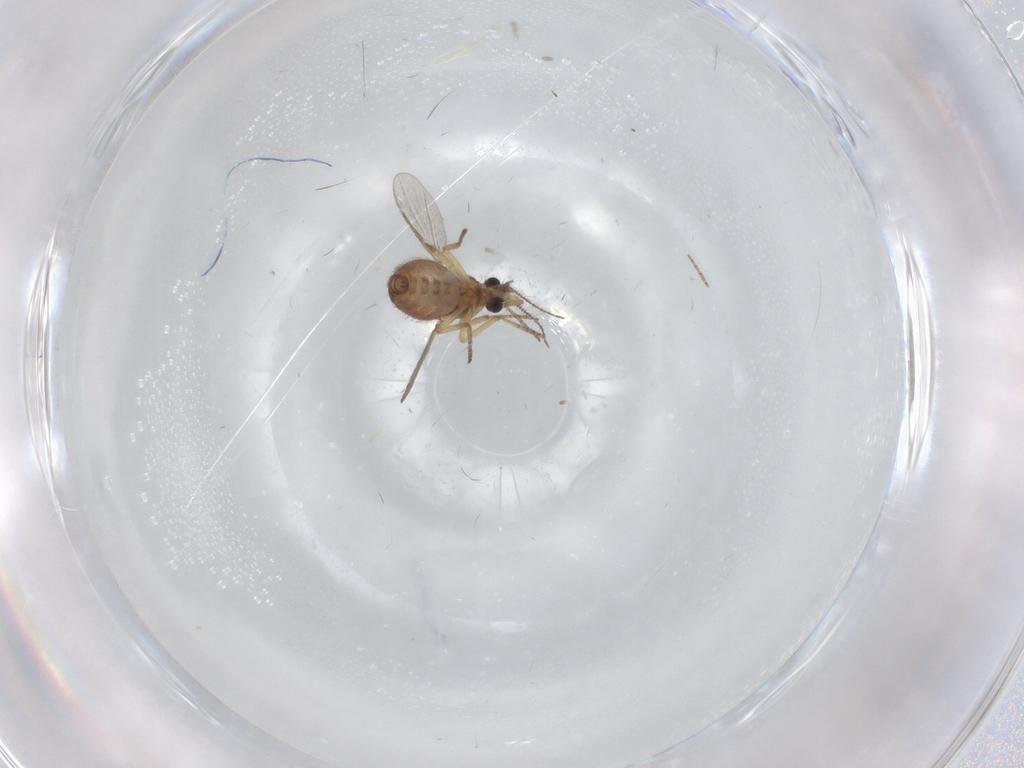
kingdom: Animalia
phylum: Arthropoda
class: Insecta
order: Diptera
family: Ceratopogonidae
